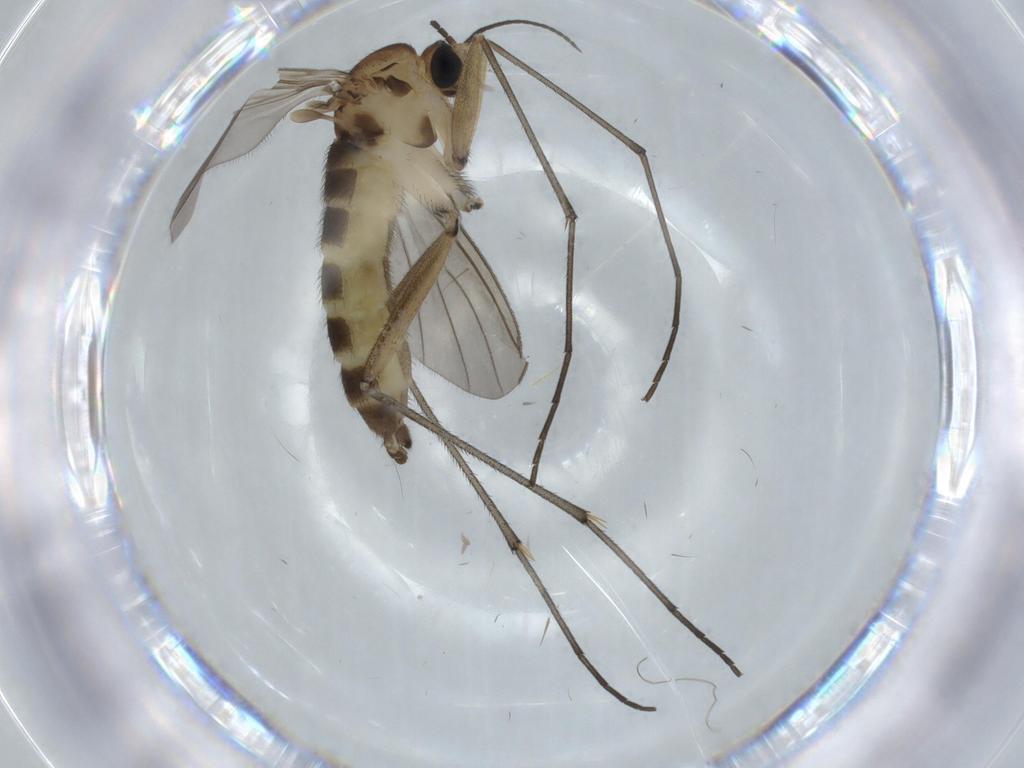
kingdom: Animalia
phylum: Arthropoda
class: Insecta
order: Diptera
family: Sciaridae
